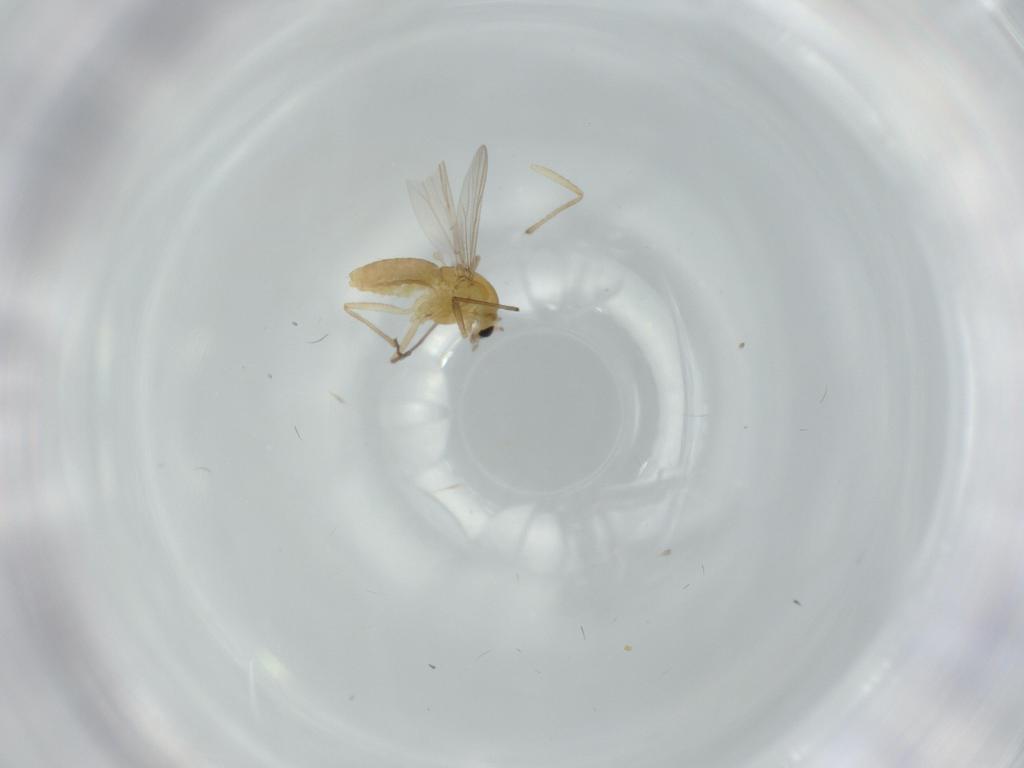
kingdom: Animalia
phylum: Arthropoda
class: Insecta
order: Diptera
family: Chironomidae
